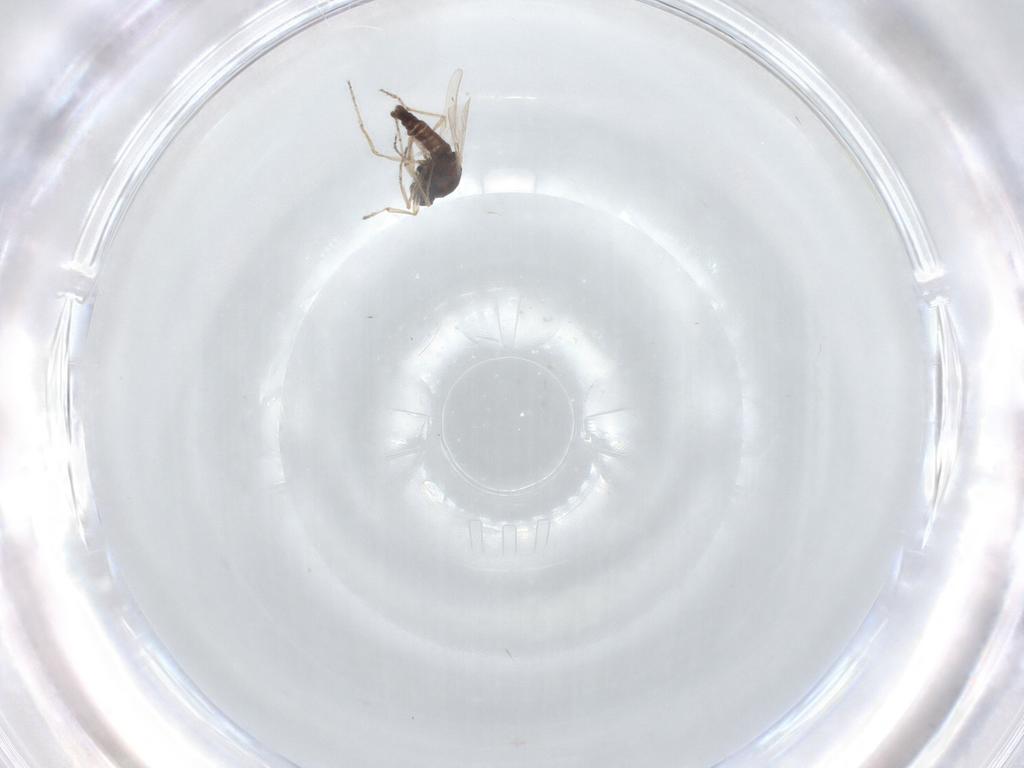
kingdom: Animalia
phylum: Arthropoda
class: Insecta
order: Diptera
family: Ceratopogonidae
